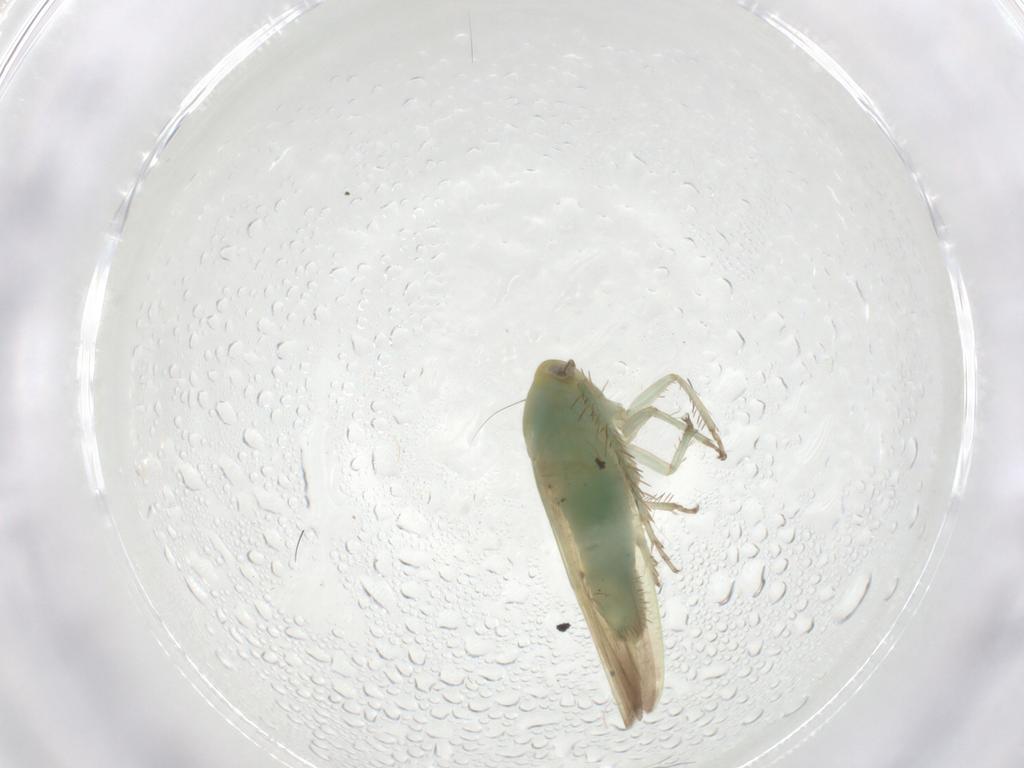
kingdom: Animalia
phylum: Arthropoda
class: Insecta
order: Hemiptera
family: Cicadellidae
